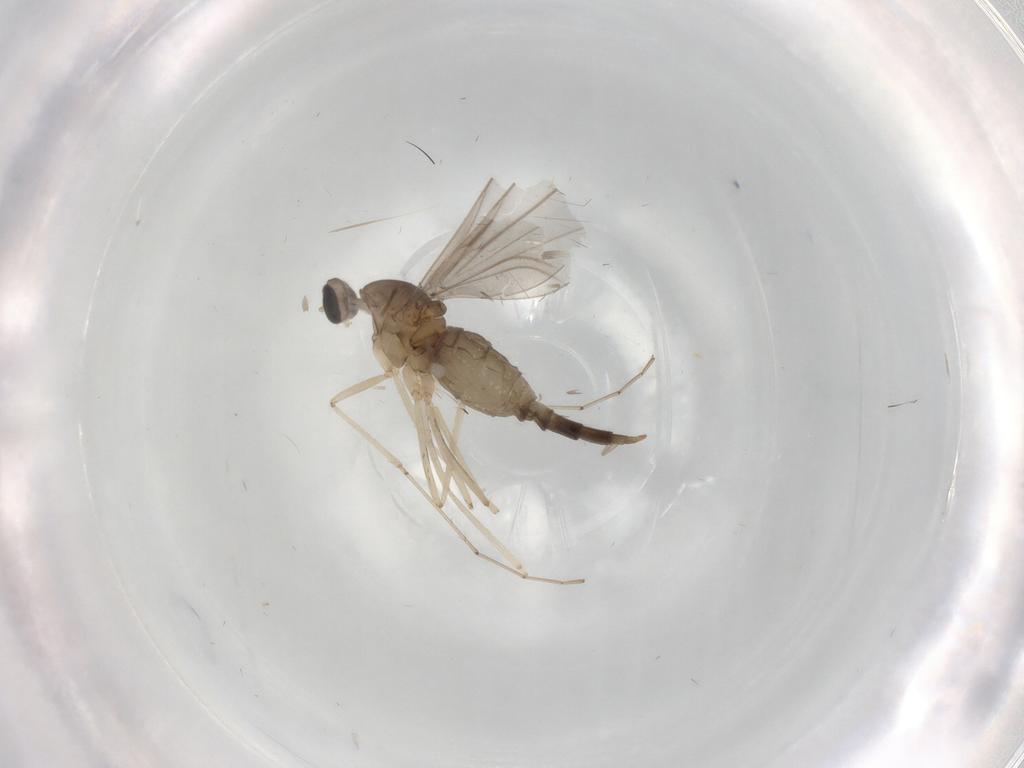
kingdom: Animalia
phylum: Arthropoda
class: Insecta
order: Diptera
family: Cecidomyiidae
